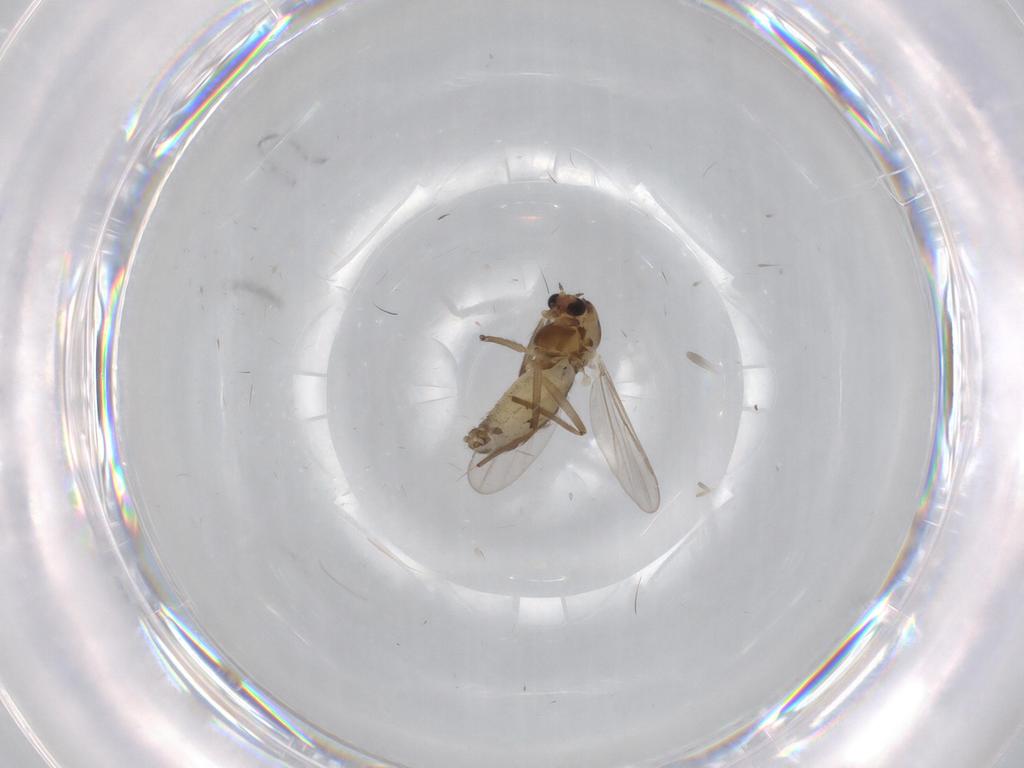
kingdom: Animalia
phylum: Arthropoda
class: Insecta
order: Diptera
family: Chironomidae
